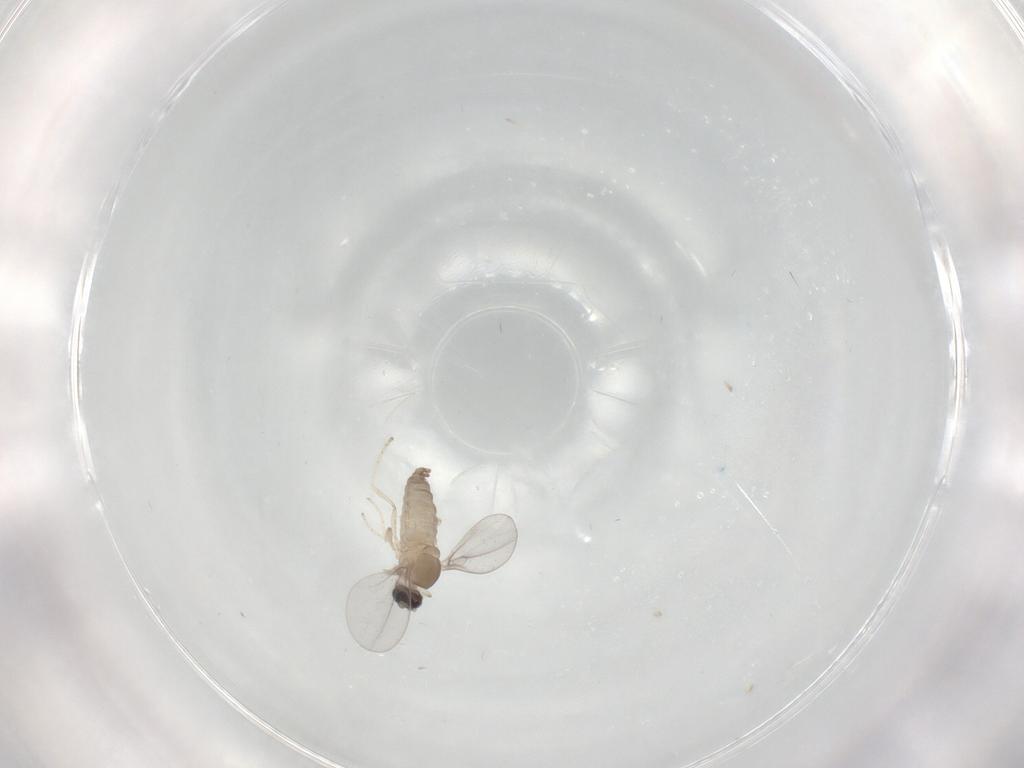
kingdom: Animalia
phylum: Arthropoda
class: Insecta
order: Diptera
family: Cecidomyiidae
